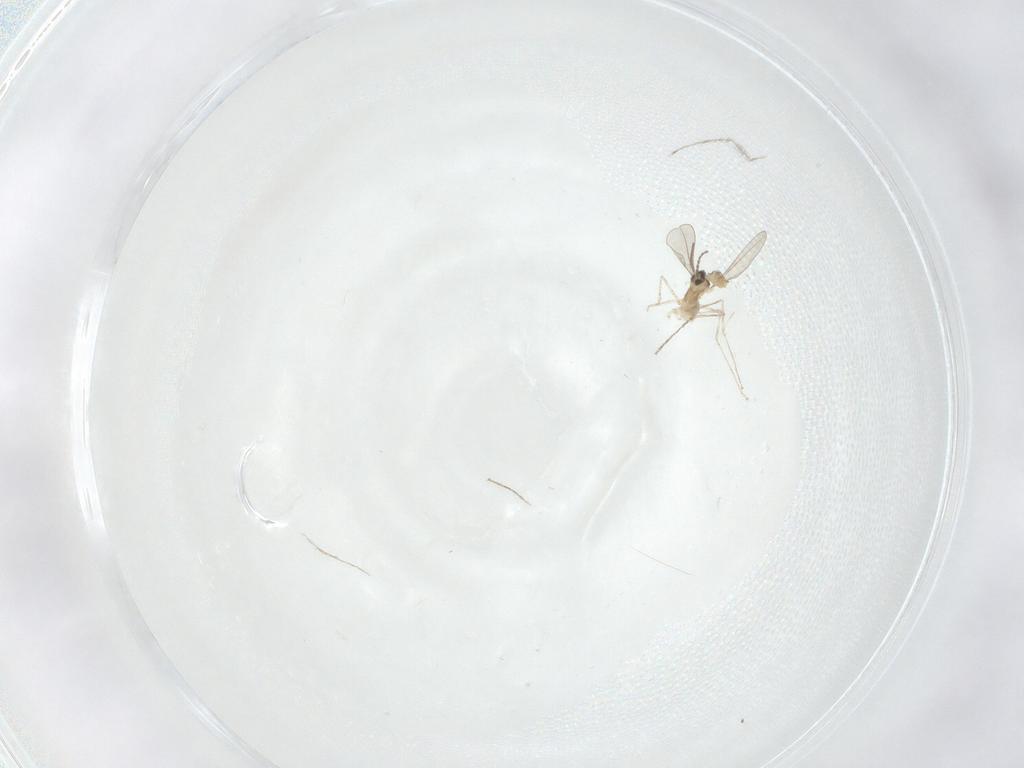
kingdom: Animalia
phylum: Arthropoda
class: Insecta
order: Diptera
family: Cecidomyiidae
